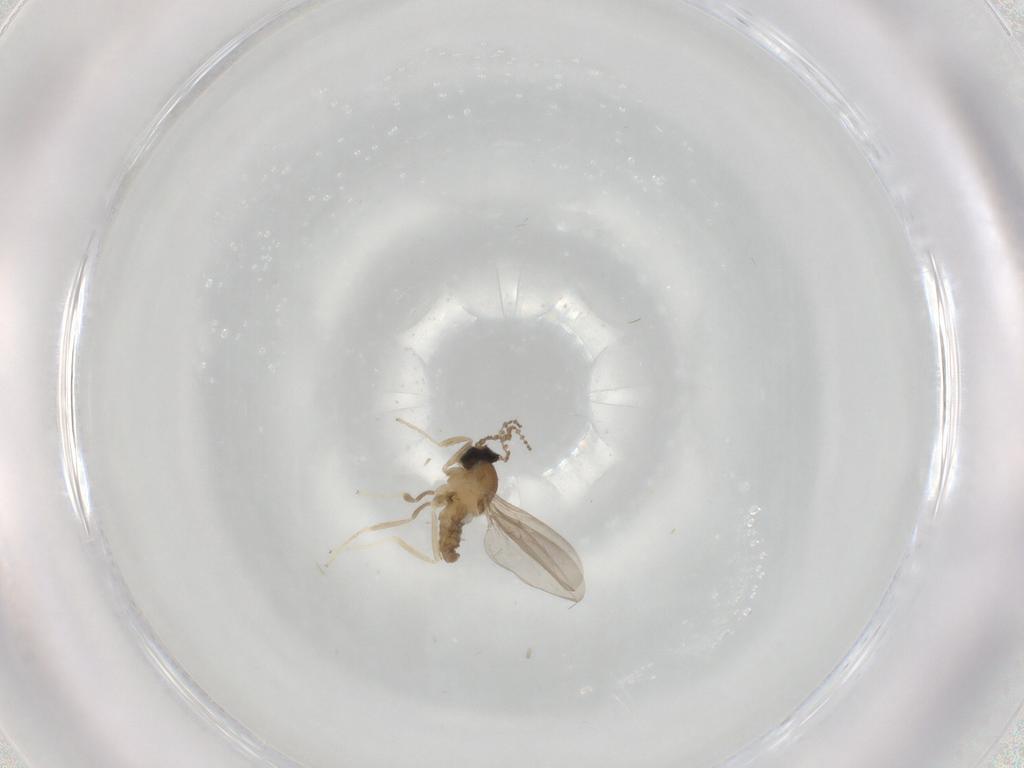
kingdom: Animalia
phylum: Arthropoda
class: Insecta
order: Diptera
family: Cecidomyiidae
